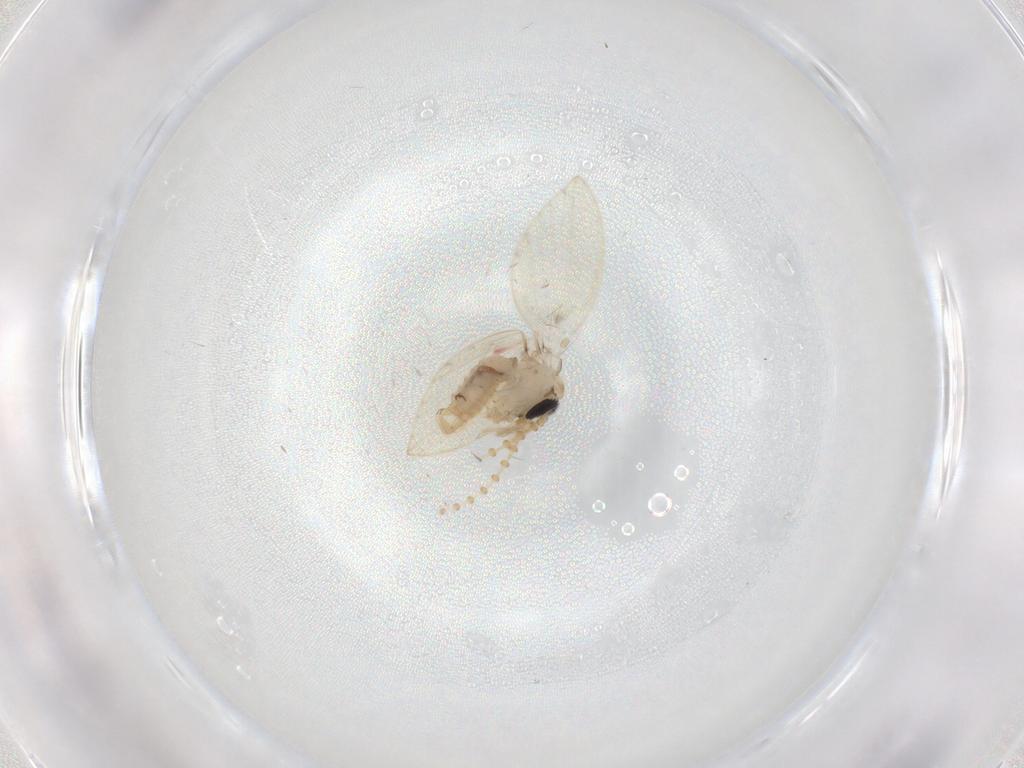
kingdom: Animalia
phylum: Arthropoda
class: Insecta
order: Diptera
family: Psychodidae
